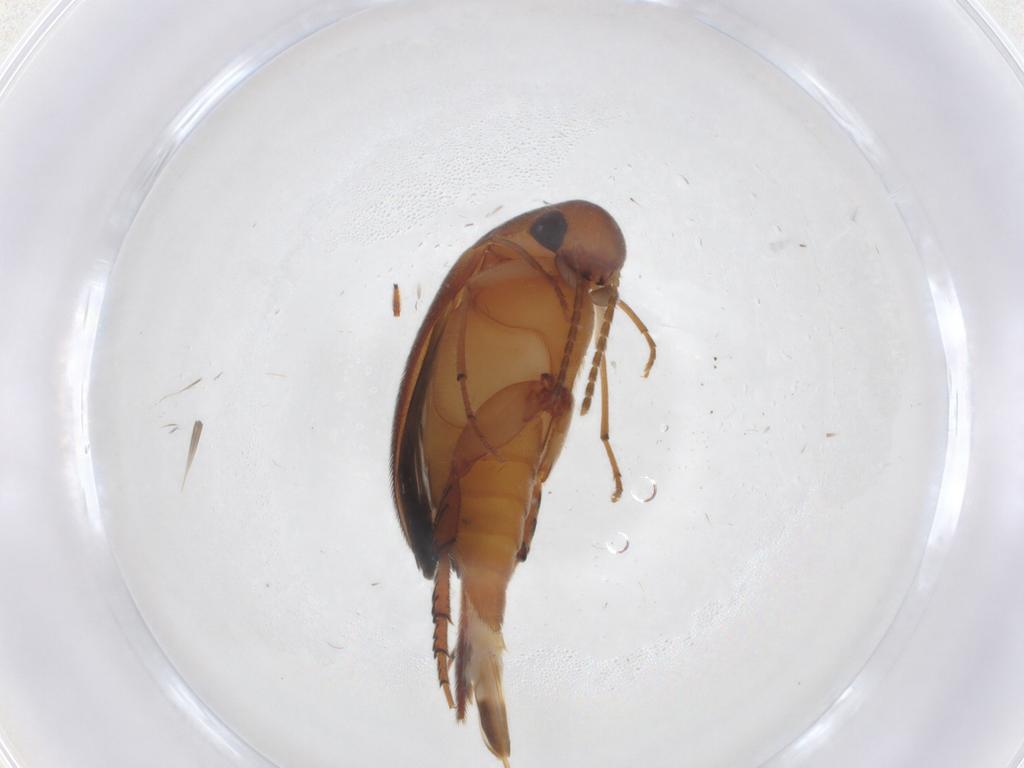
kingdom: Animalia
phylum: Arthropoda
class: Insecta
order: Coleoptera
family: Mordellidae
